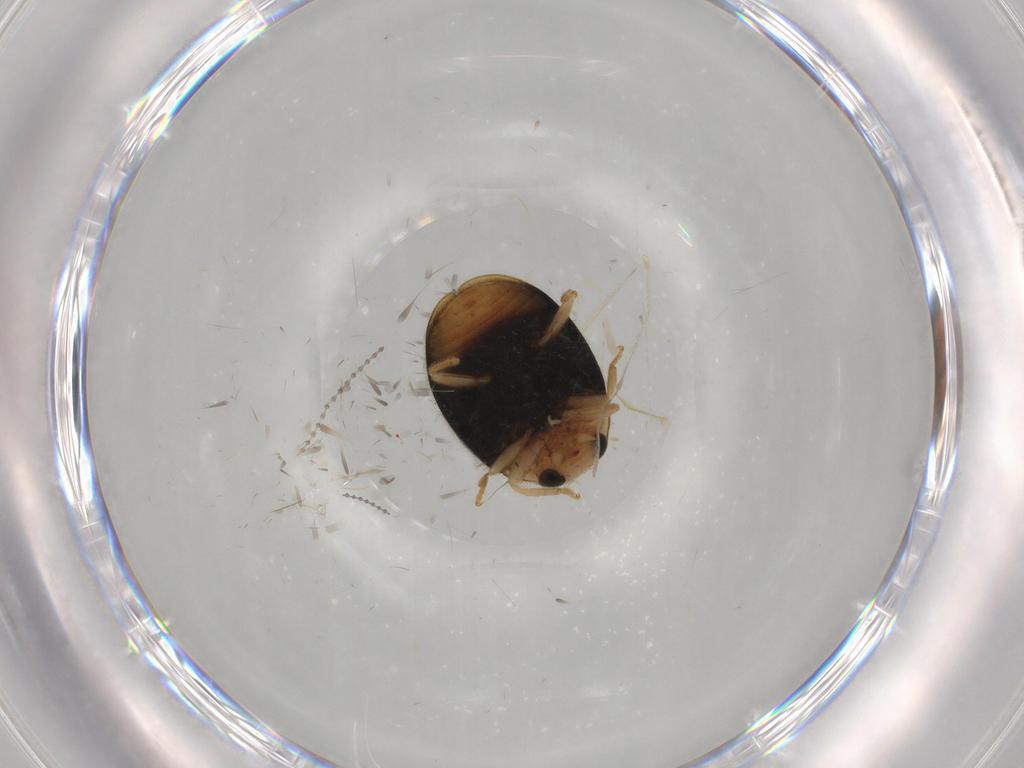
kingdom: Animalia
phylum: Arthropoda
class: Insecta
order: Coleoptera
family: Coccinellidae
